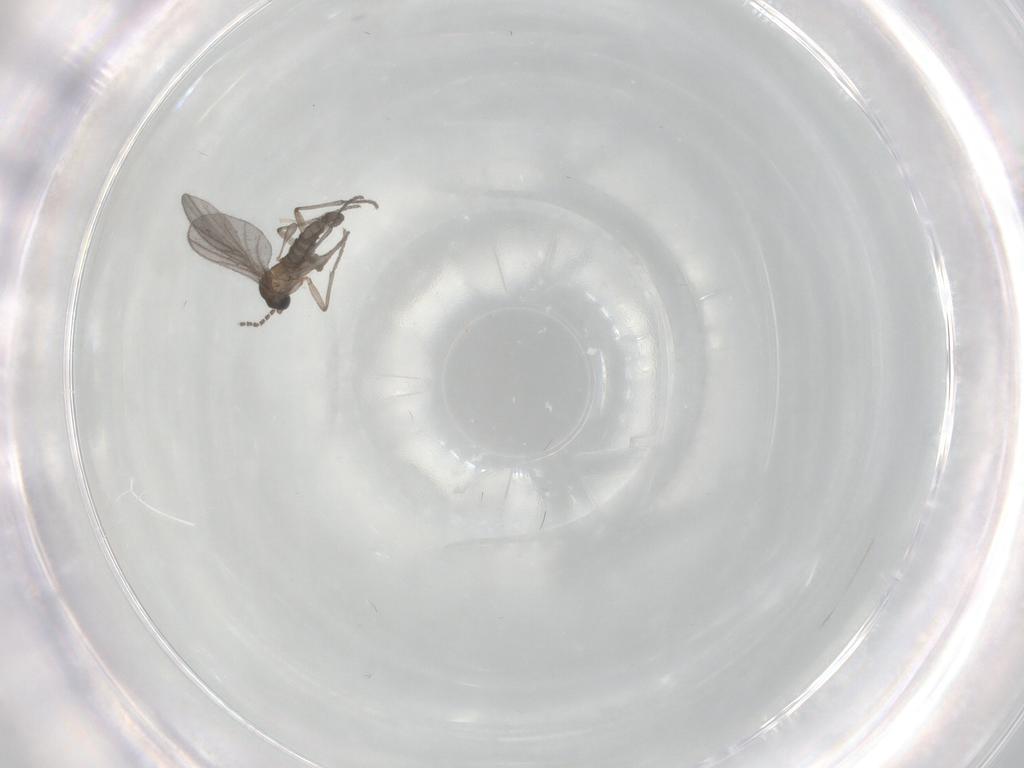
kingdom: Animalia
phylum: Arthropoda
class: Insecta
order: Diptera
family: Sciaridae
